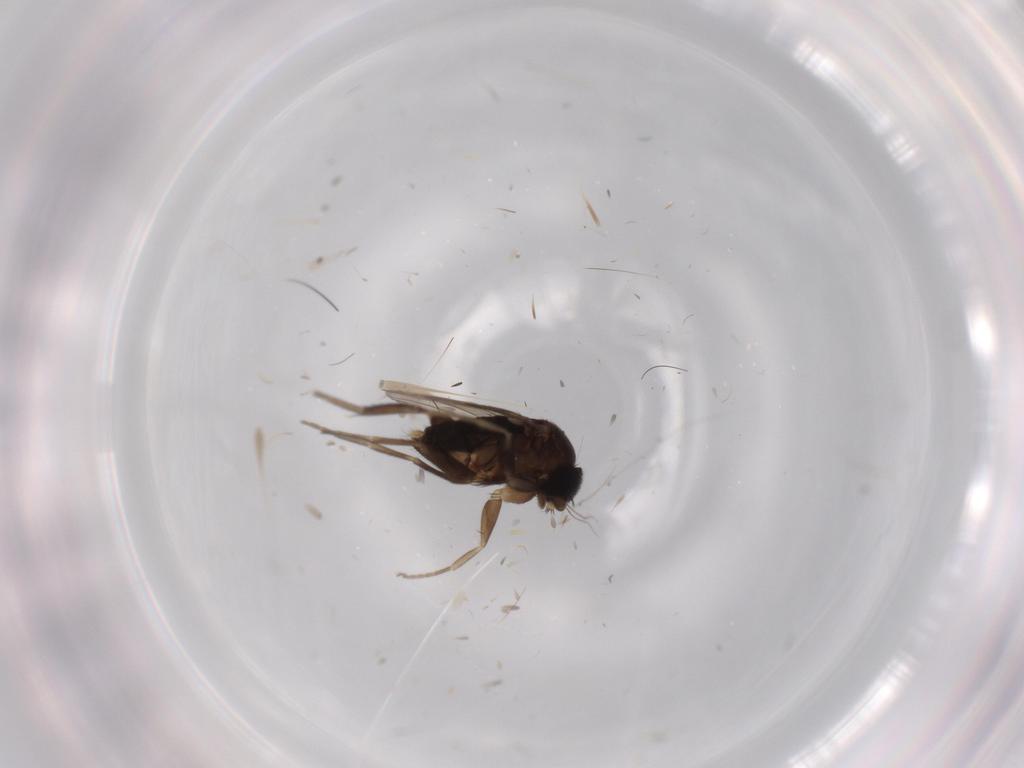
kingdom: Animalia
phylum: Arthropoda
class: Insecta
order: Diptera
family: Phoridae
